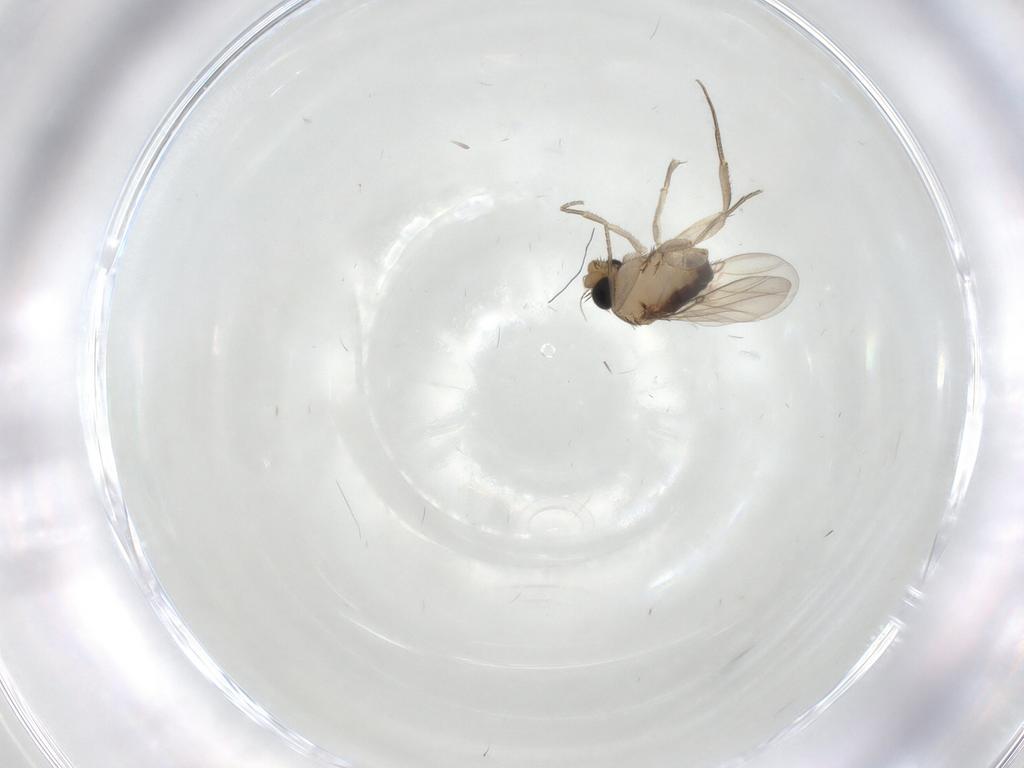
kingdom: Animalia
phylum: Arthropoda
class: Insecta
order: Diptera
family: Phoridae
